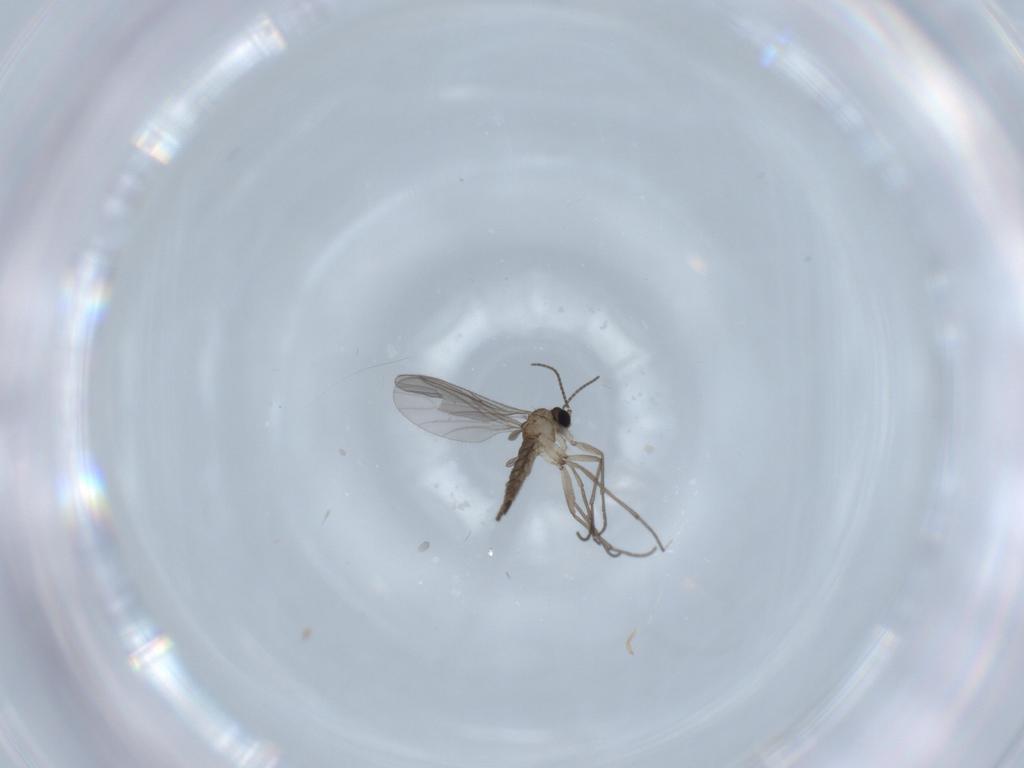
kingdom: Animalia
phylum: Arthropoda
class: Insecta
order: Diptera
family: Sciaridae
